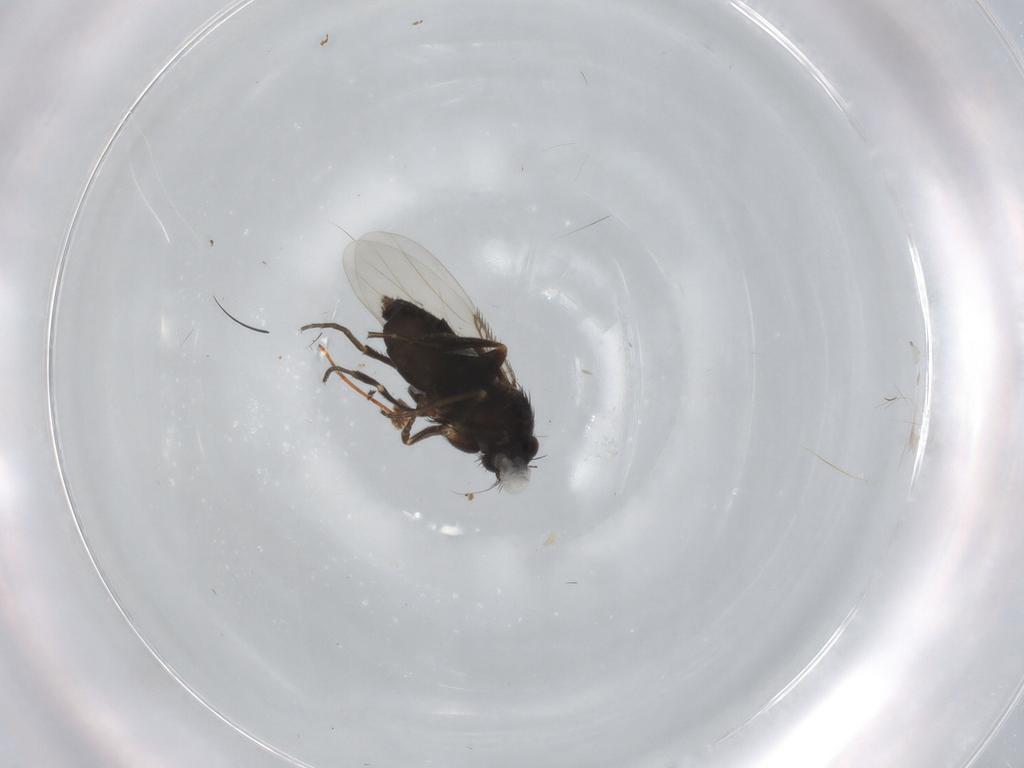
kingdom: Animalia
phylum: Arthropoda
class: Insecta
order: Diptera
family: Phoridae
